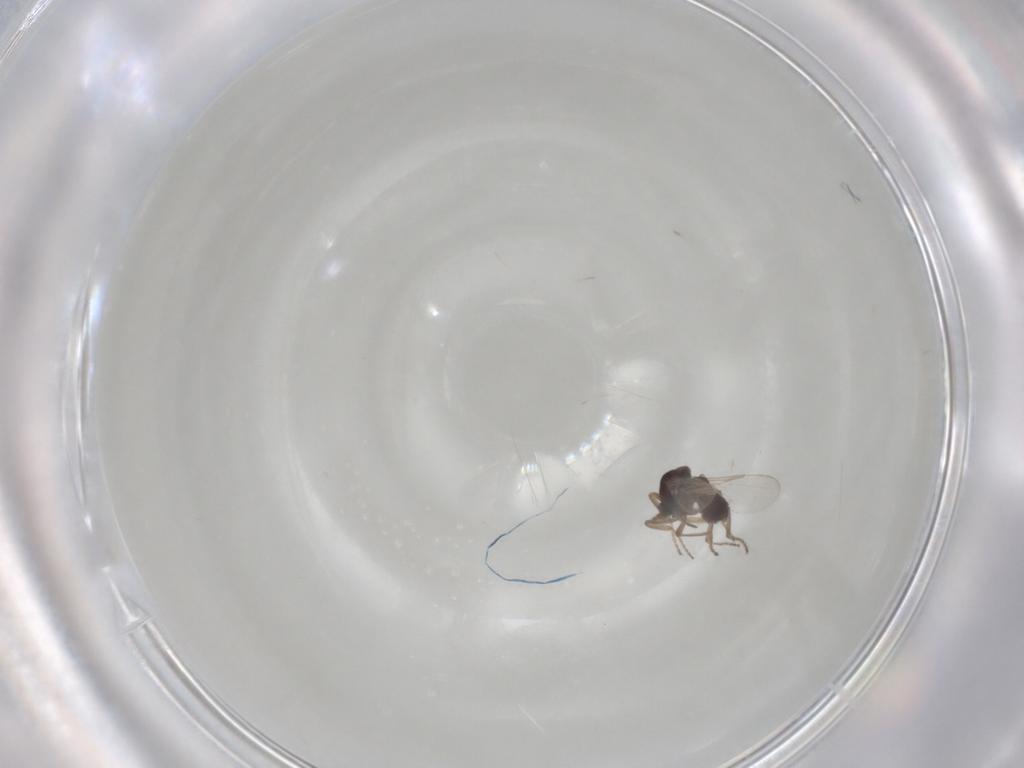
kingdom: Animalia
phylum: Arthropoda
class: Insecta
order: Diptera
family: Ceratopogonidae
